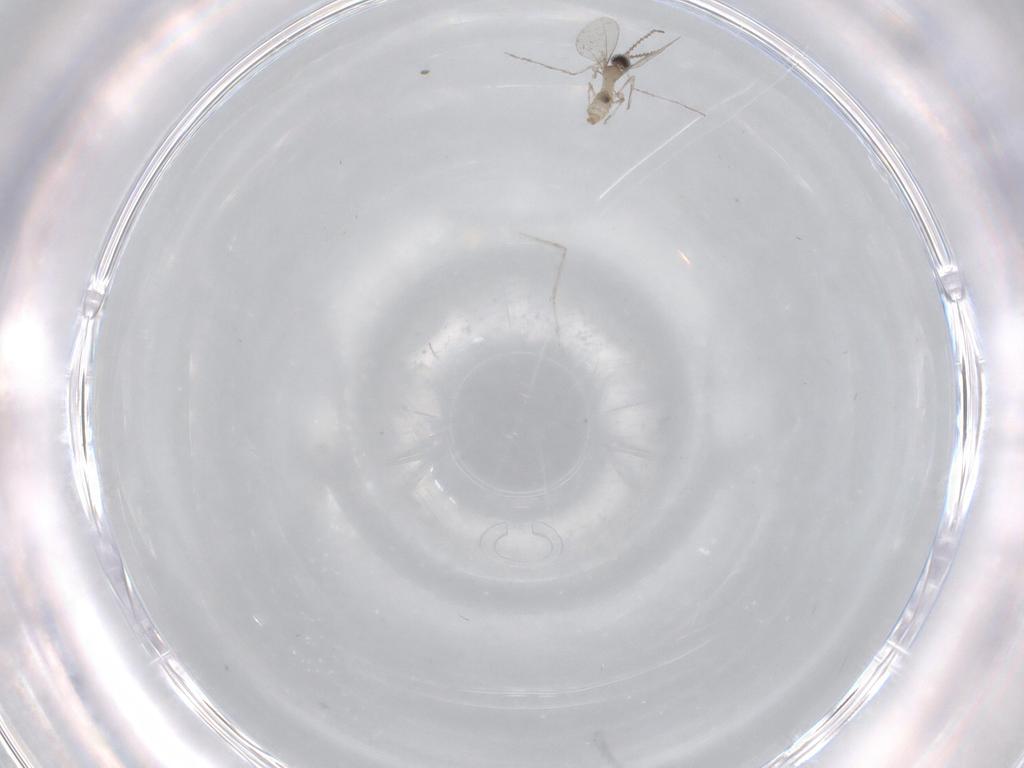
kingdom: Animalia
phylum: Arthropoda
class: Insecta
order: Diptera
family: Cecidomyiidae
